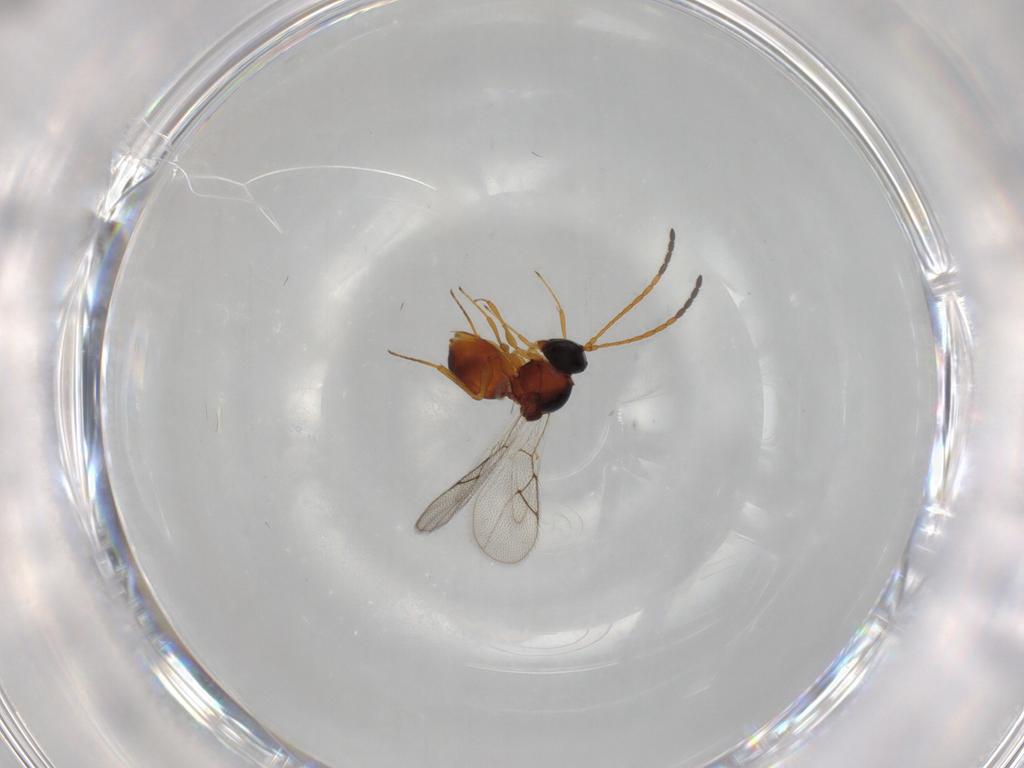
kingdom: Animalia
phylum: Arthropoda
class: Insecta
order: Hymenoptera
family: Figitidae
